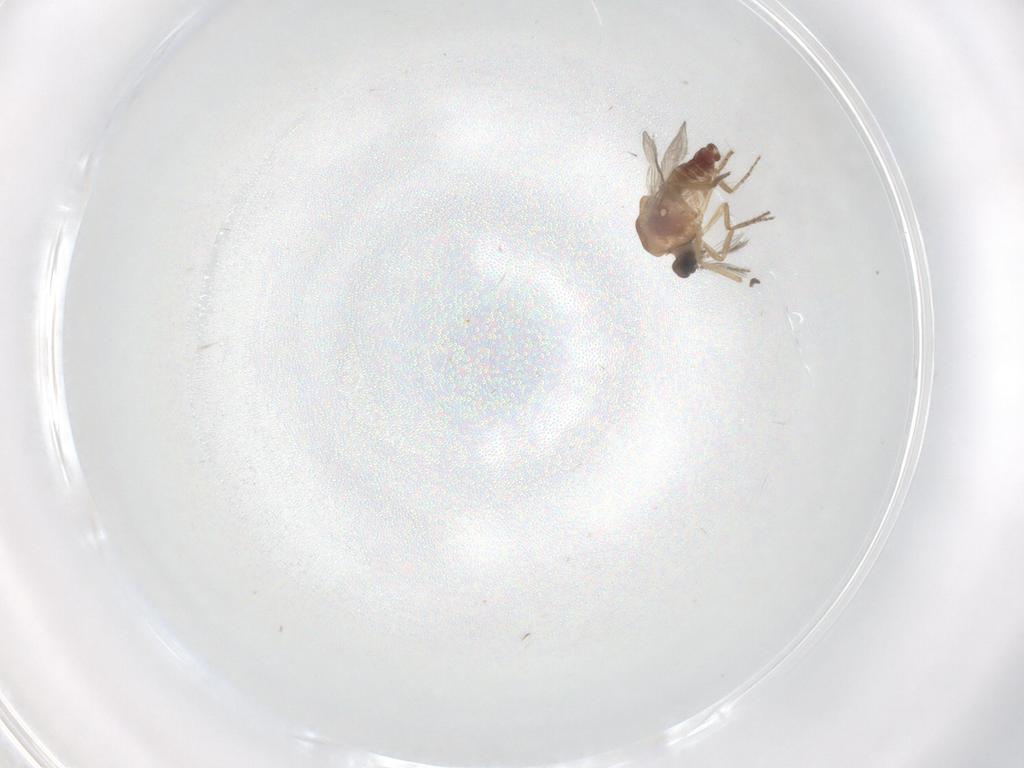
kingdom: Animalia
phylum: Arthropoda
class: Insecta
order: Diptera
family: Ceratopogonidae
